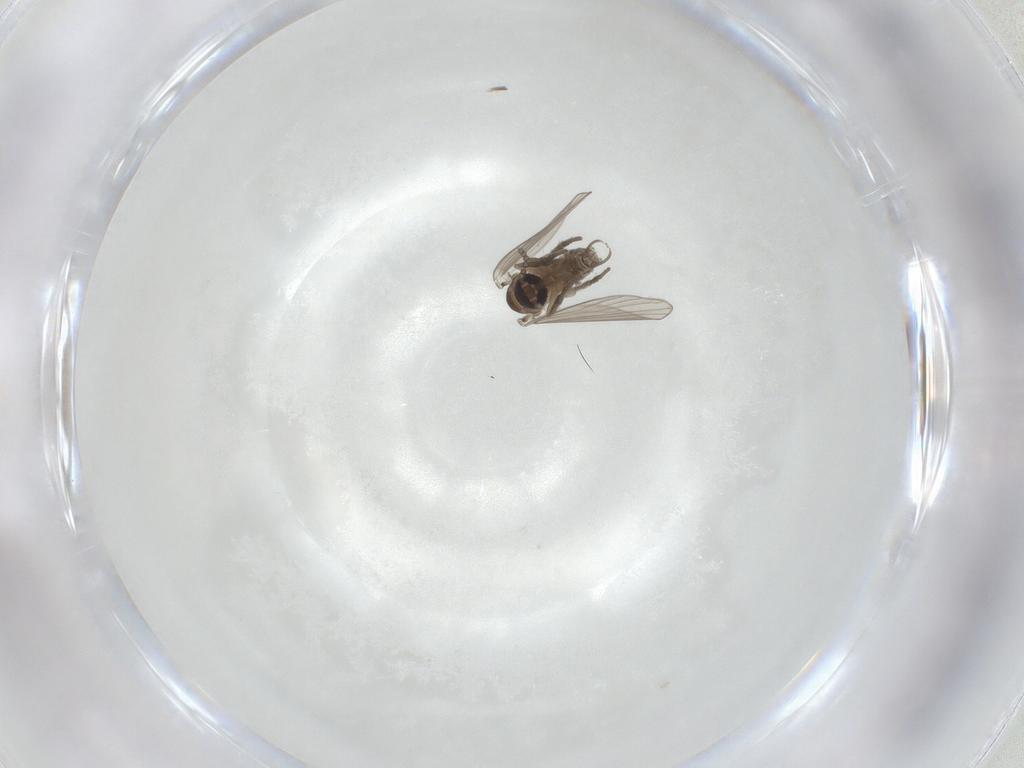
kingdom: Animalia
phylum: Arthropoda
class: Insecta
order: Diptera
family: Psychodidae
